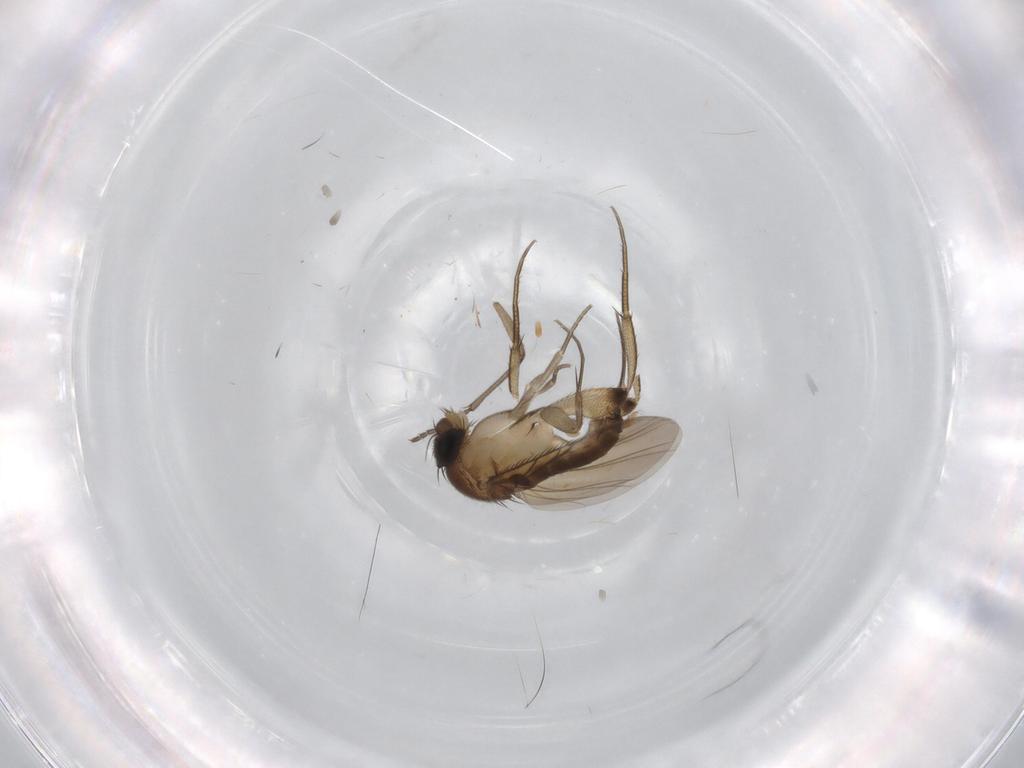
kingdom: Animalia
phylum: Arthropoda
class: Insecta
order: Diptera
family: Phoridae
